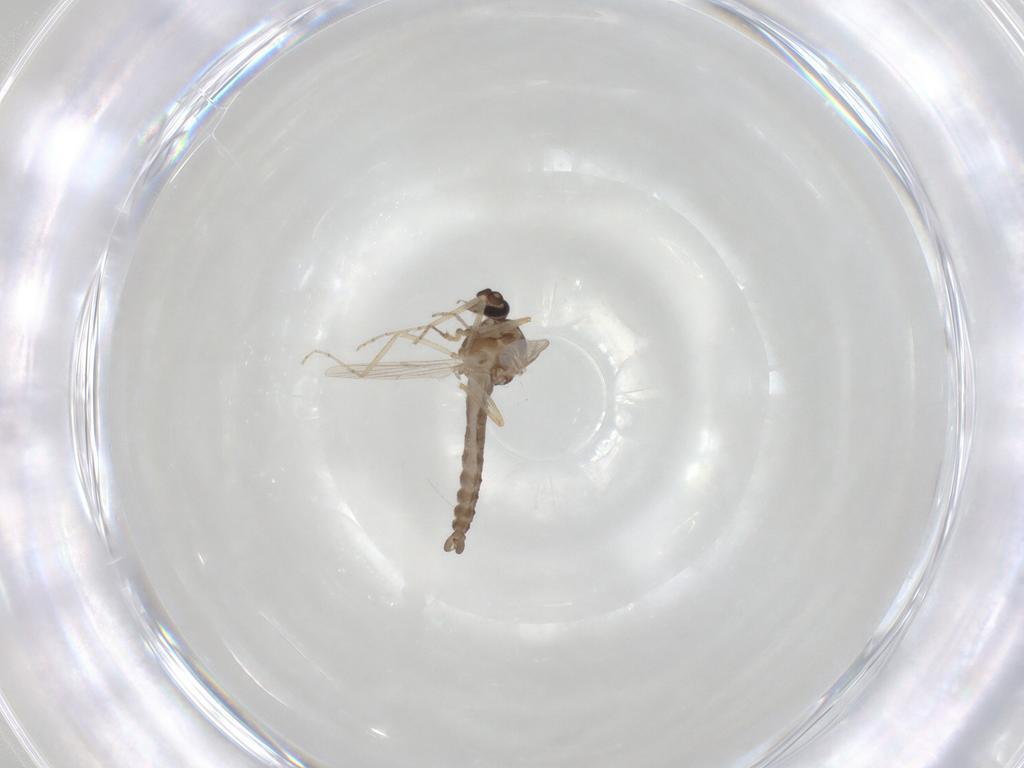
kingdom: Animalia
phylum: Arthropoda
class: Insecta
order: Diptera
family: Ceratopogonidae
